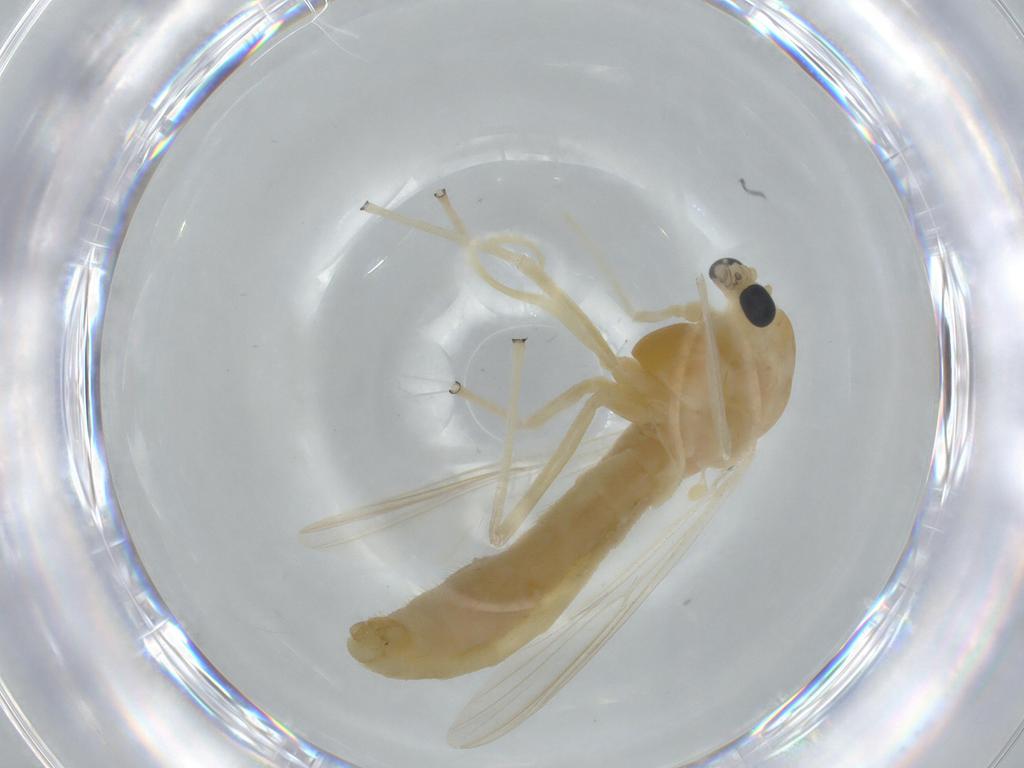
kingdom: Animalia
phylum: Arthropoda
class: Insecta
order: Diptera
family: Chironomidae
